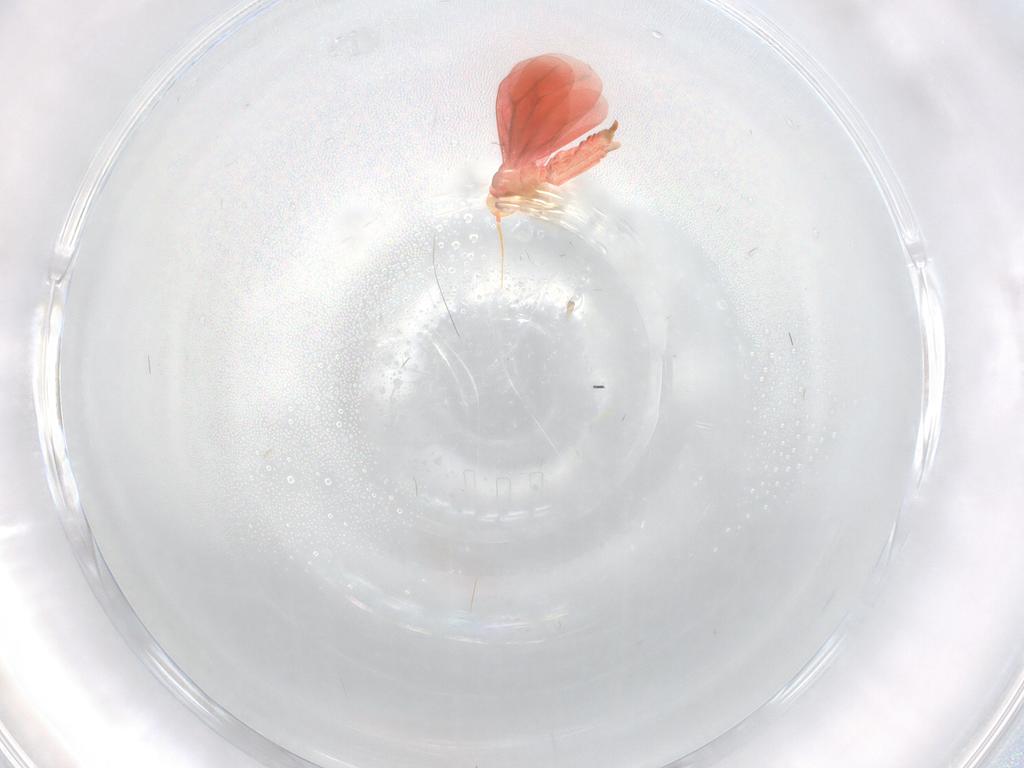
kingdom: Animalia
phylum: Arthropoda
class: Insecta
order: Hemiptera
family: Aleyrodidae
